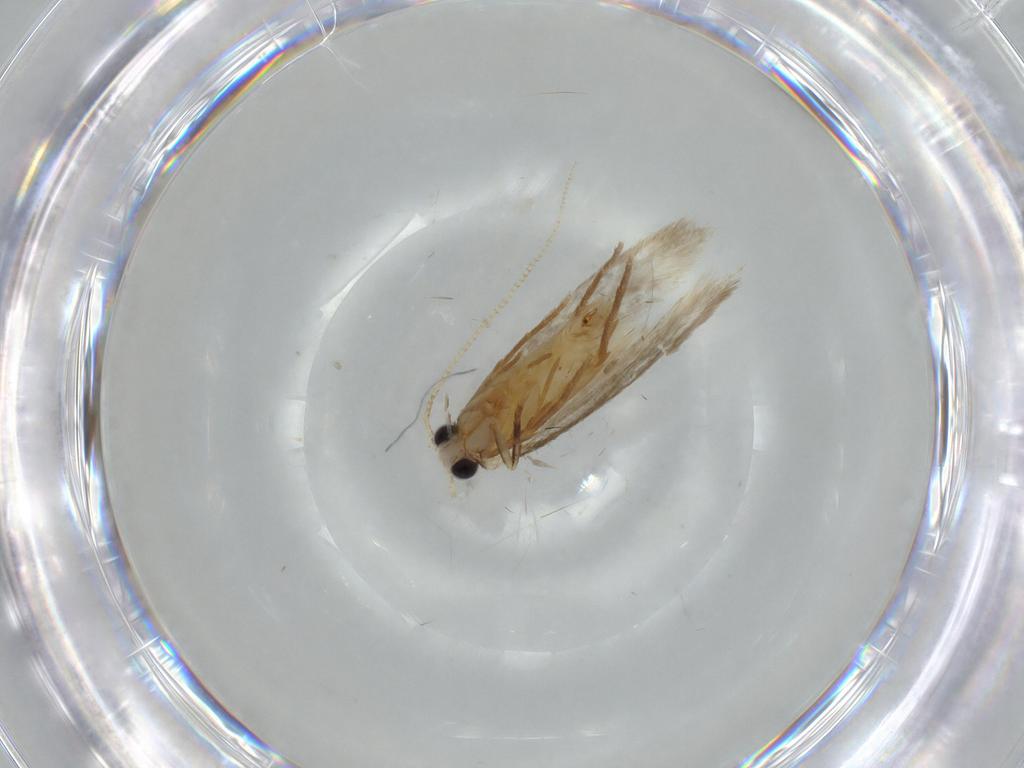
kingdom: Animalia
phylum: Arthropoda
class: Insecta
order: Lepidoptera
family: Tineidae
